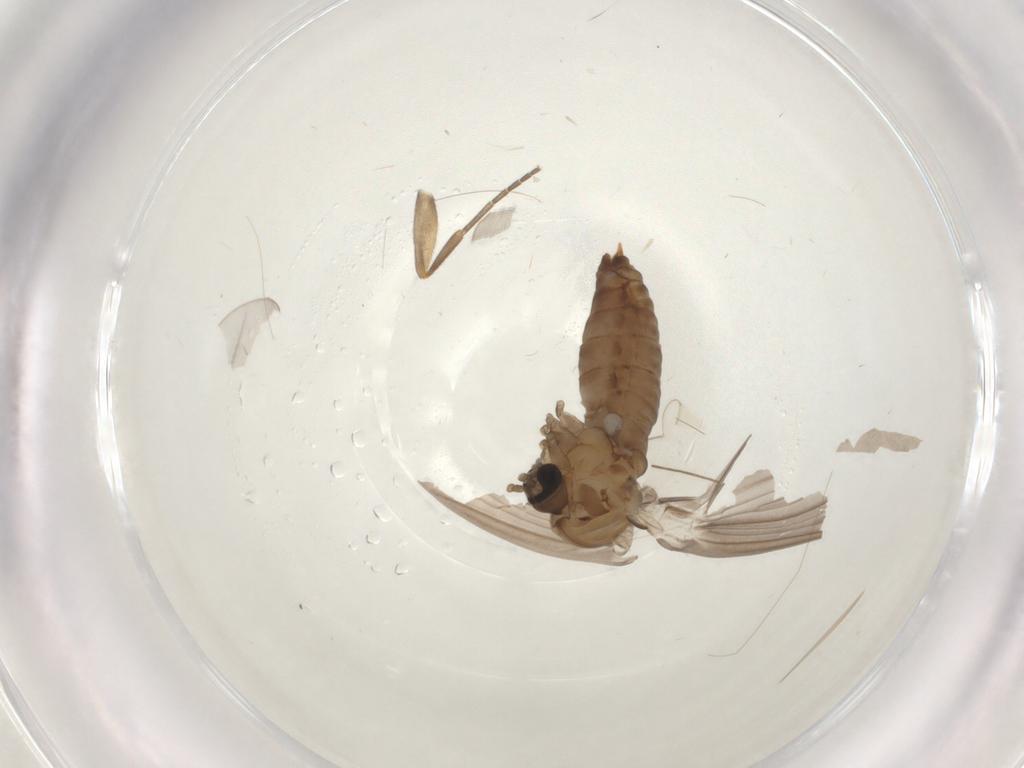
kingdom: Animalia
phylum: Arthropoda
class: Insecta
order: Diptera
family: Psychodidae
